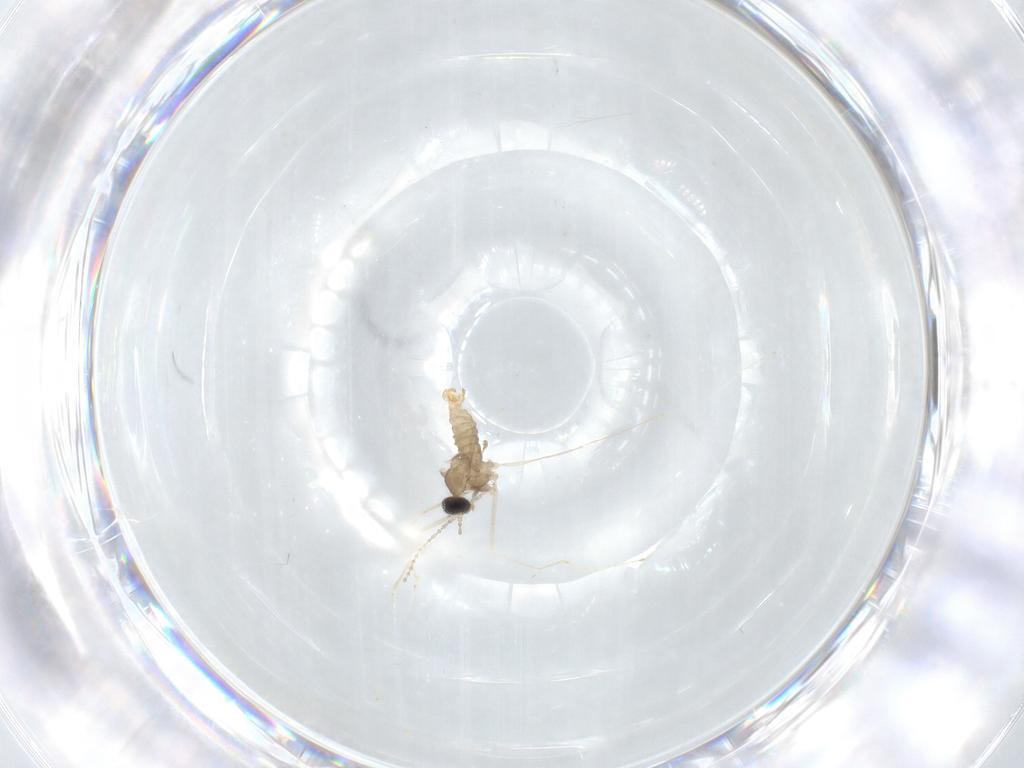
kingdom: Animalia
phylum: Arthropoda
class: Insecta
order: Diptera
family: Cecidomyiidae
